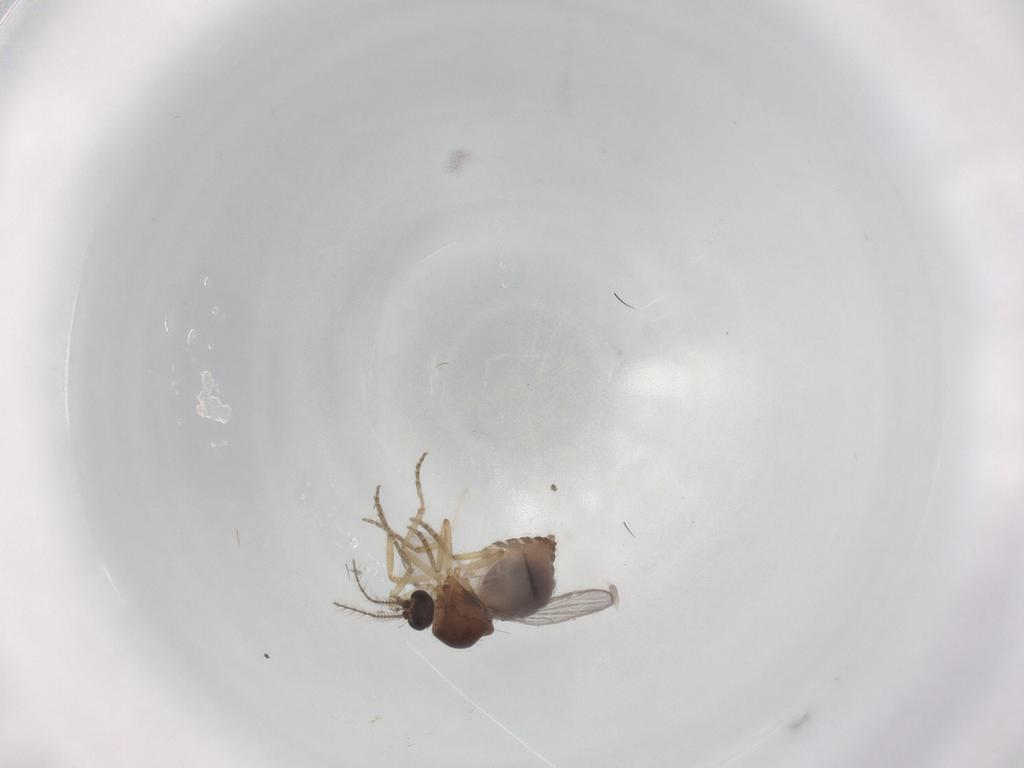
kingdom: Animalia
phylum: Arthropoda
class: Insecta
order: Diptera
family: Ceratopogonidae
